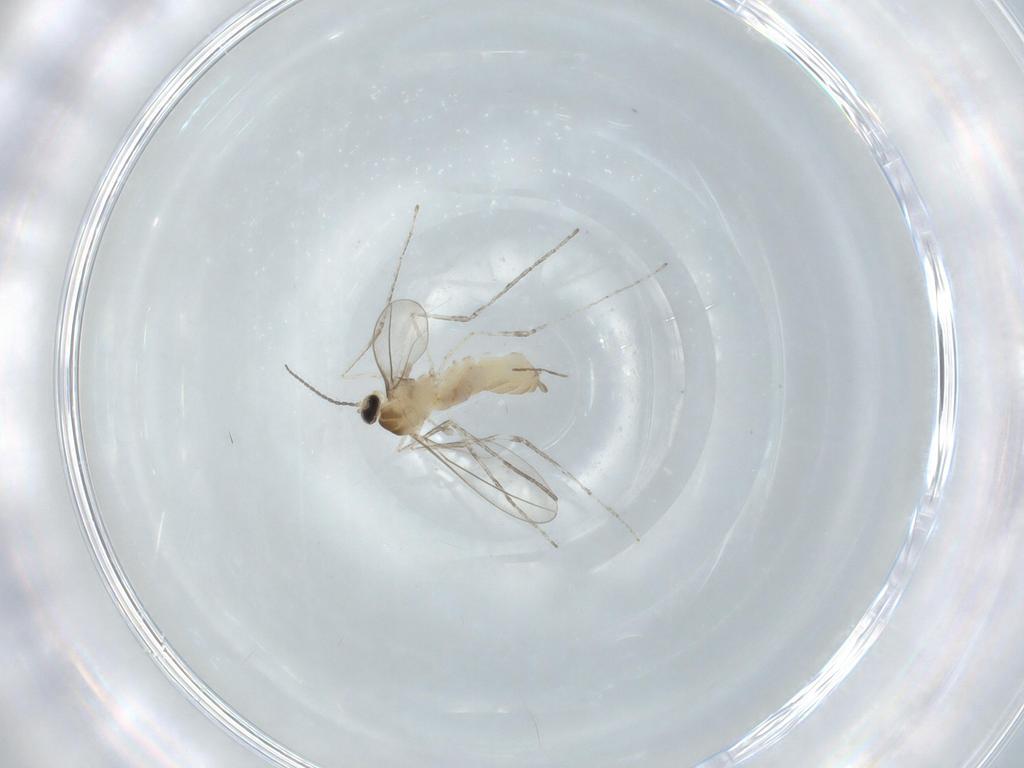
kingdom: Animalia
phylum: Arthropoda
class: Insecta
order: Diptera
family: Cecidomyiidae
